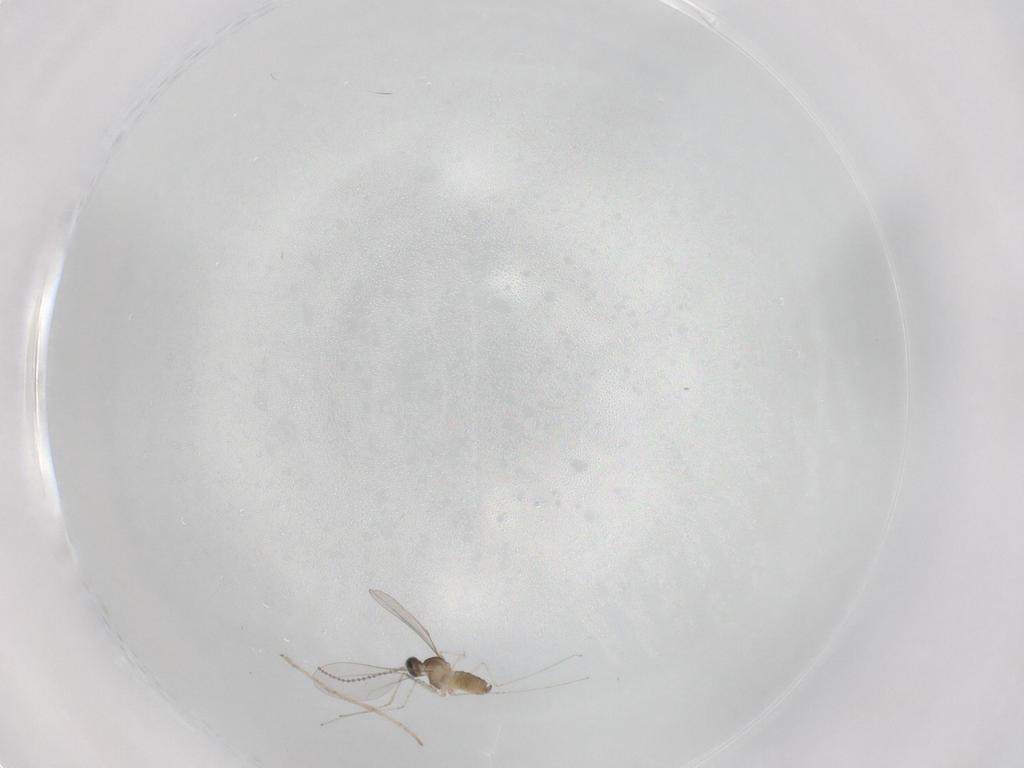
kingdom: Animalia
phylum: Arthropoda
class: Insecta
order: Diptera
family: Cecidomyiidae
